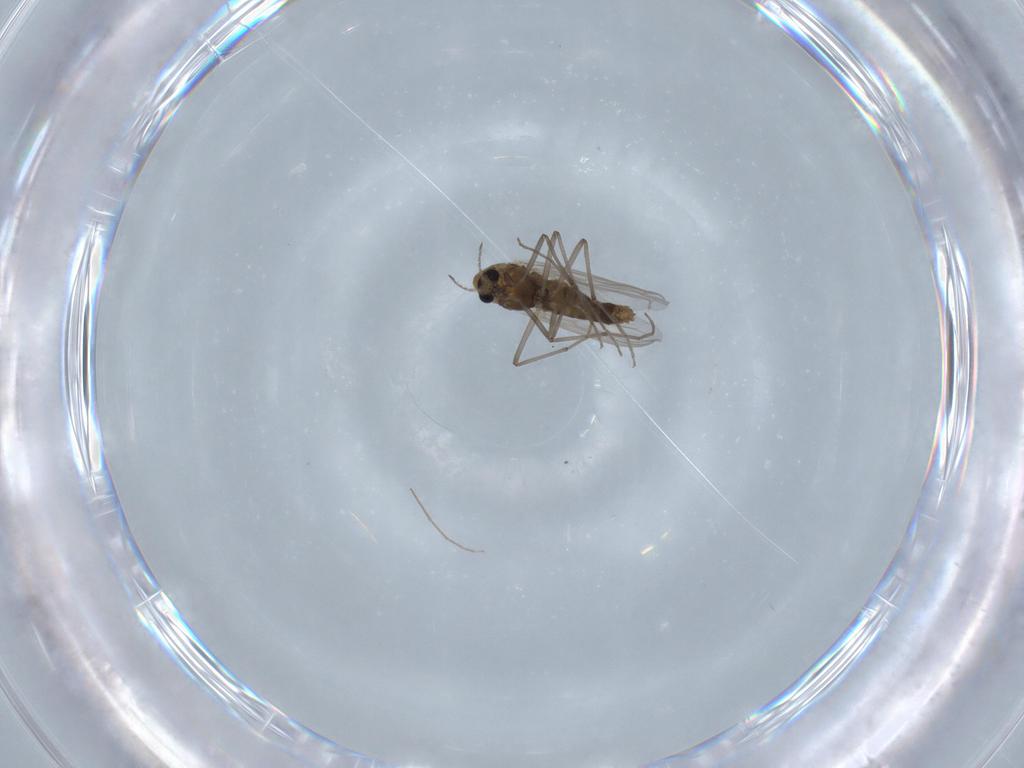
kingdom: Animalia
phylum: Arthropoda
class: Insecta
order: Diptera
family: Chironomidae
